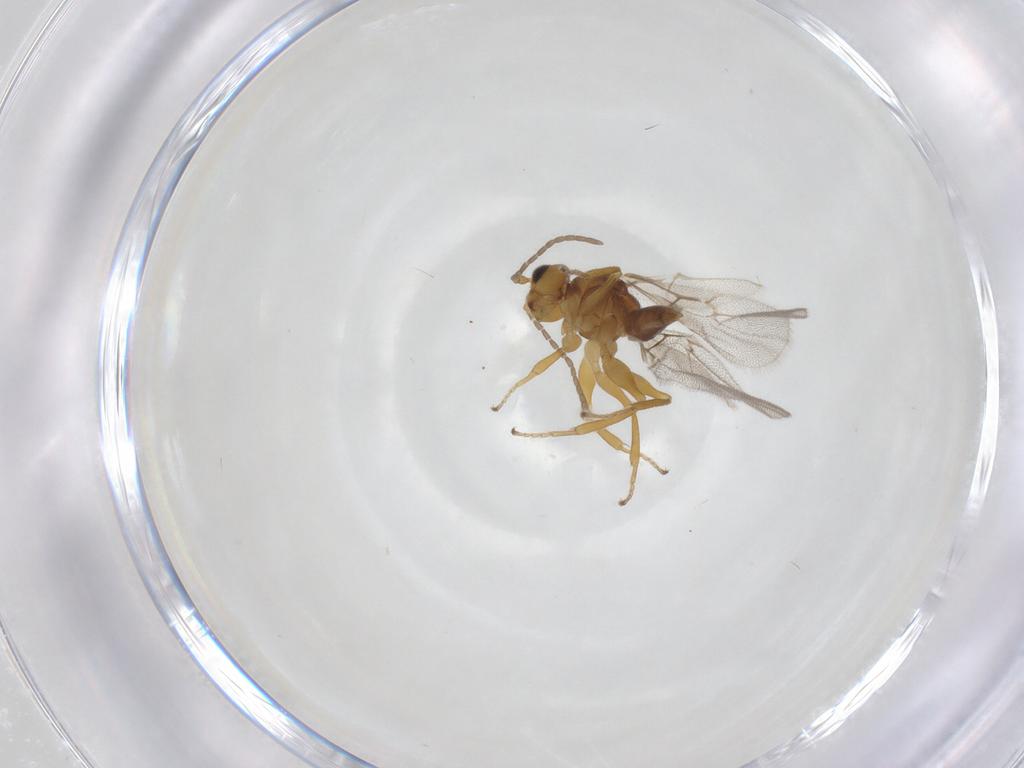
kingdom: Animalia
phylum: Arthropoda
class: Insecta
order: Hymenoptera
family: Cynipidae
